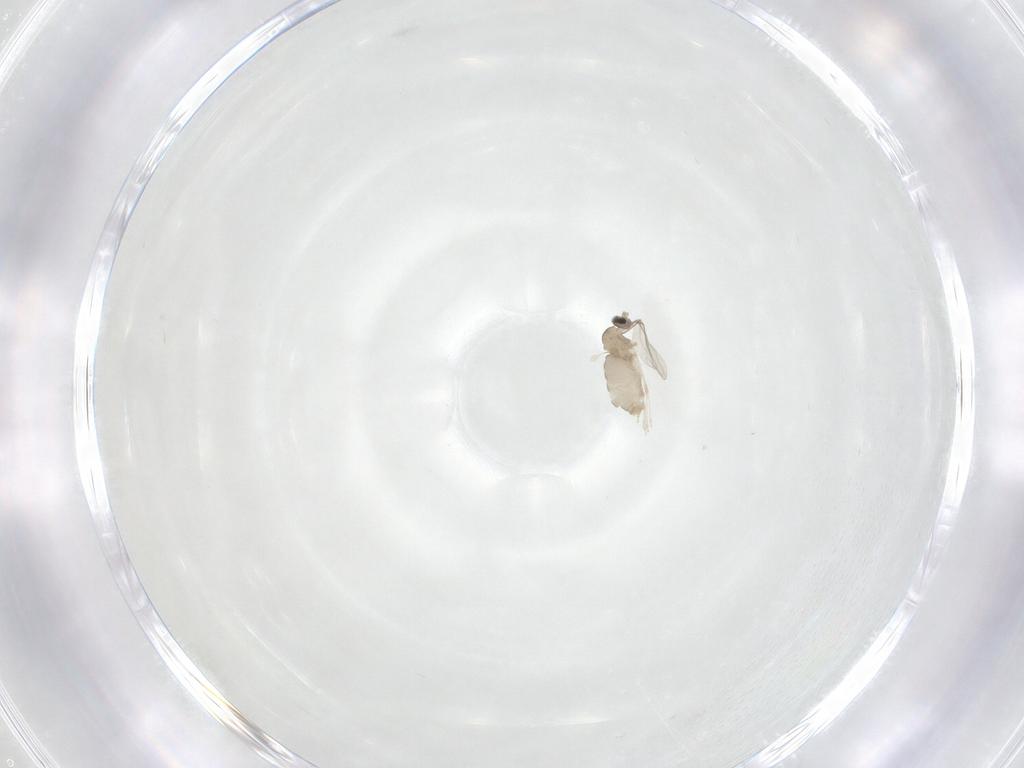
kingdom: Animalia
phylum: Arthropoda
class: Insecta
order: Diptera
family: Cecidomyiidae
